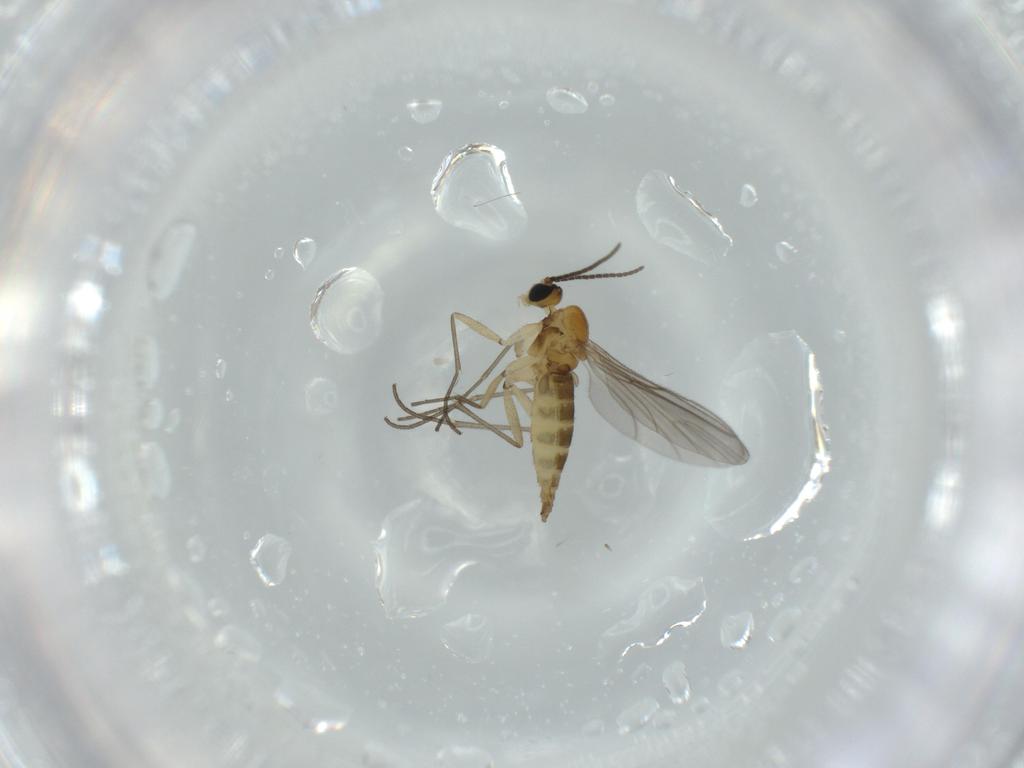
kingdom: Animalia
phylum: Arthropoda
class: Insecta
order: Diptera
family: Sciaridae
